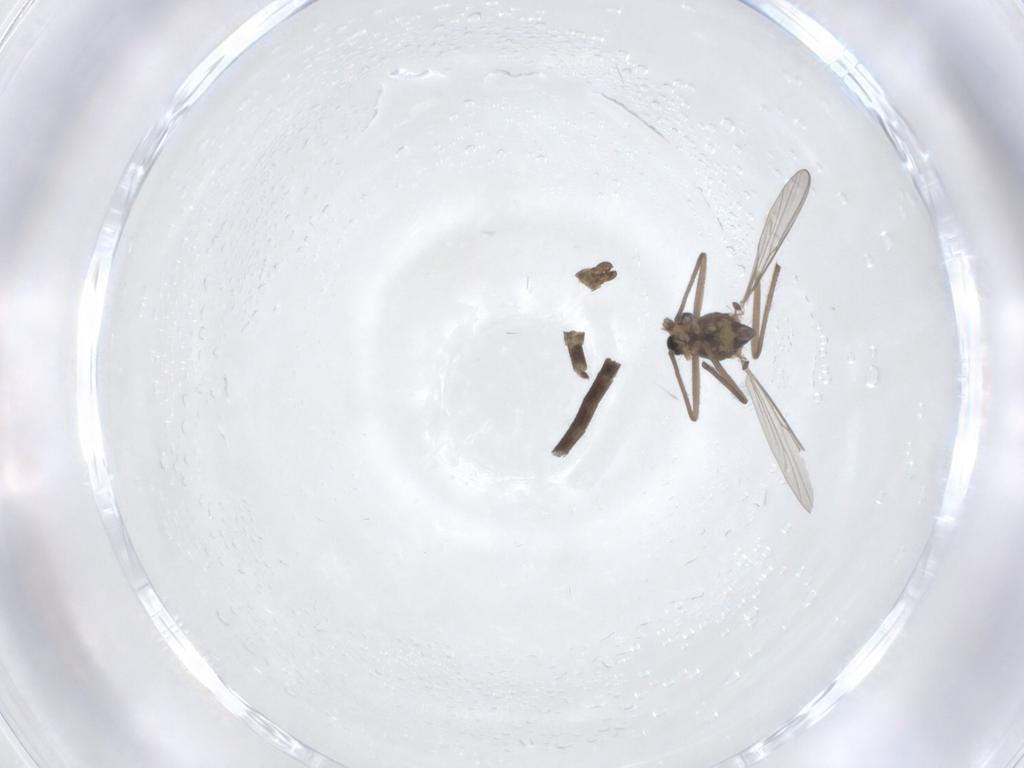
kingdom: Animalia
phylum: Arthropoda
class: Insecta
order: Diptera
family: Chironomidae
